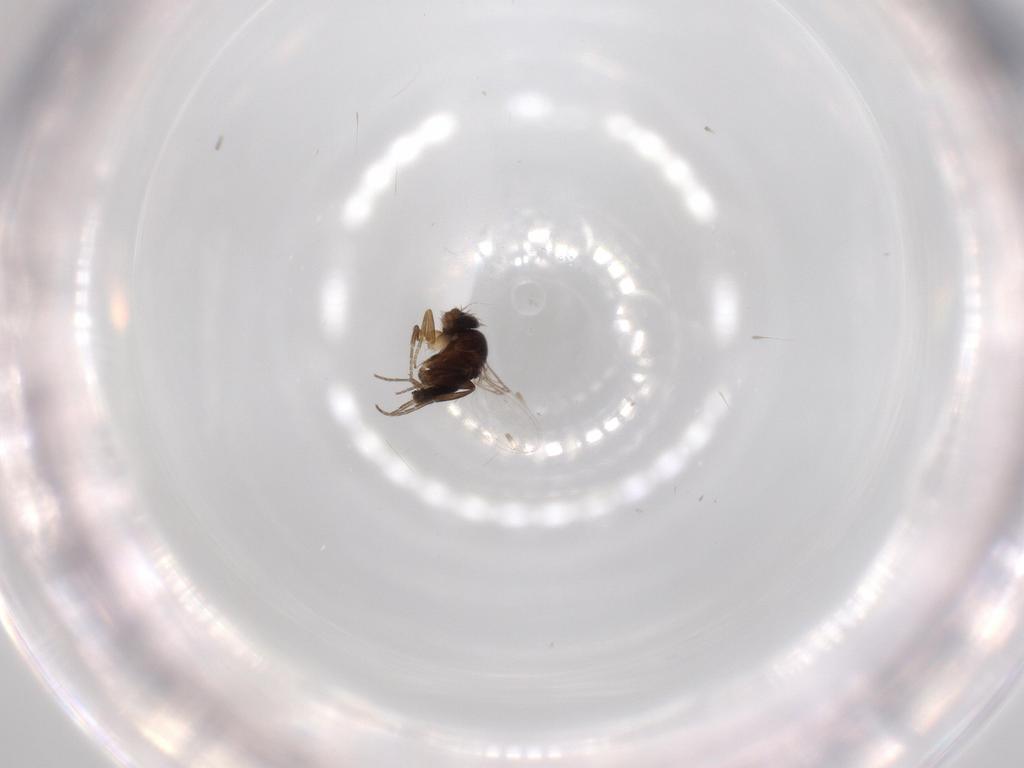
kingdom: Animalia
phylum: Arthropoda
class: Insecta
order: Diptera
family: Phoridae
